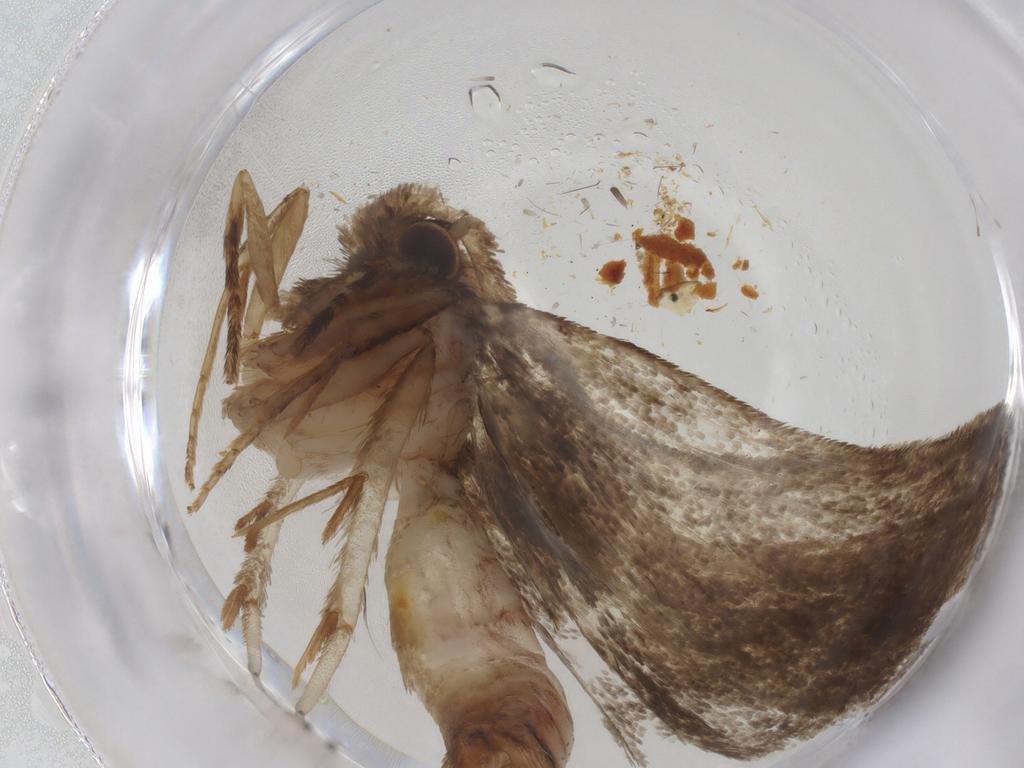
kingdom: Animalia
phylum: Arthropoda
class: Insecta
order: Lepidoptera
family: Tineidae
